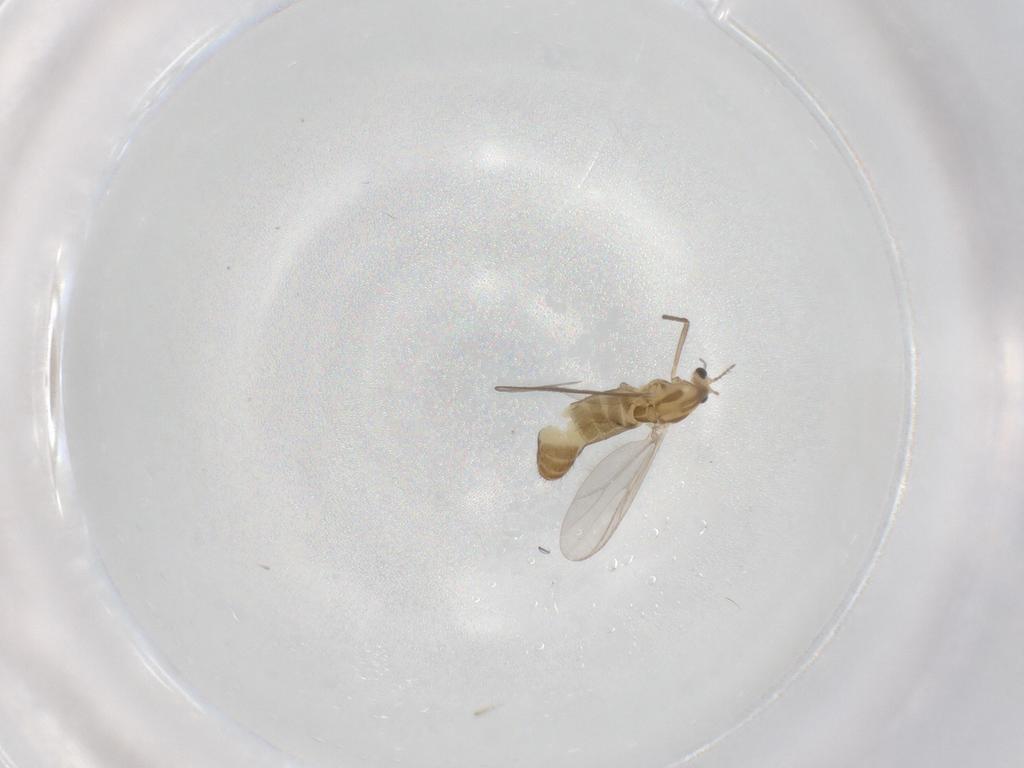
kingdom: Animalia
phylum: Arthropoda
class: Insecta
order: Diptera
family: Chironomidae
